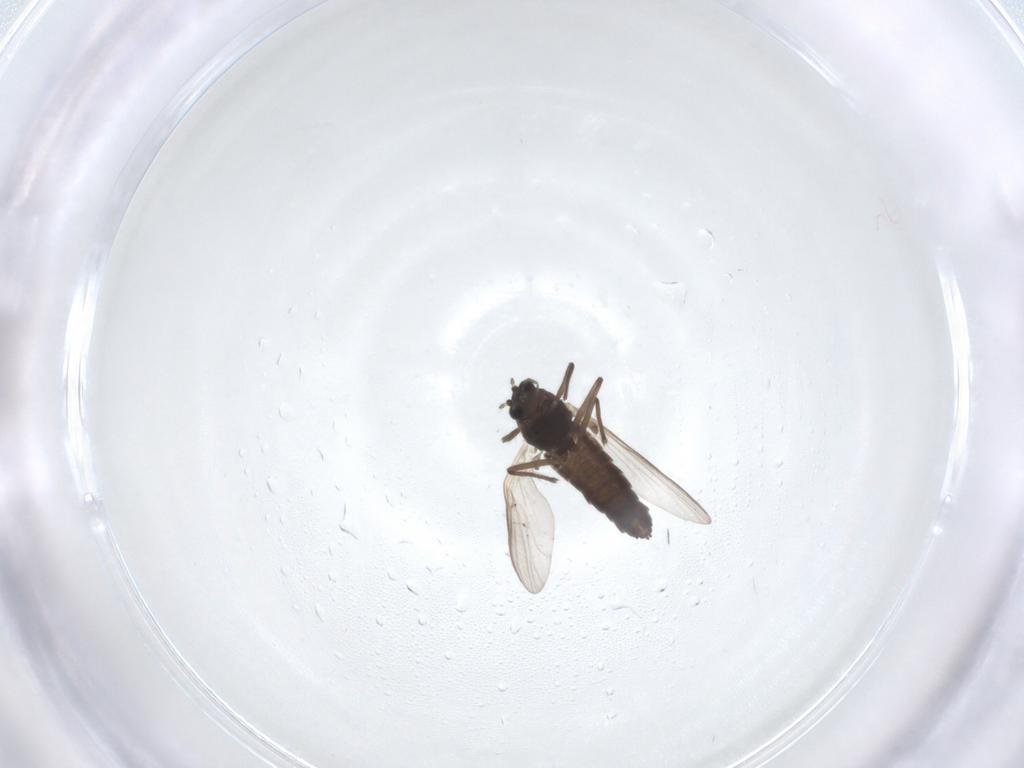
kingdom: Animalia
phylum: Arthropoda
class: Insecta
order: Diptera
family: Chironomidae
